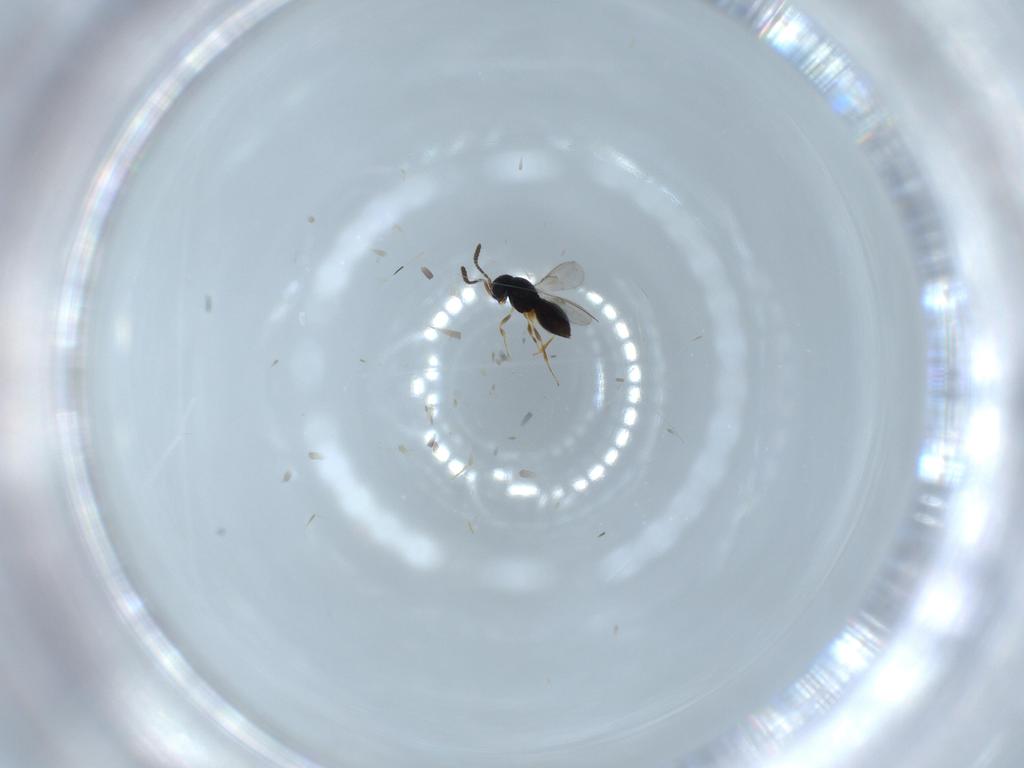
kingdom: Animalia
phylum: Arthropoda
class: Insecta
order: Hymenoptera
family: Scelionidae
